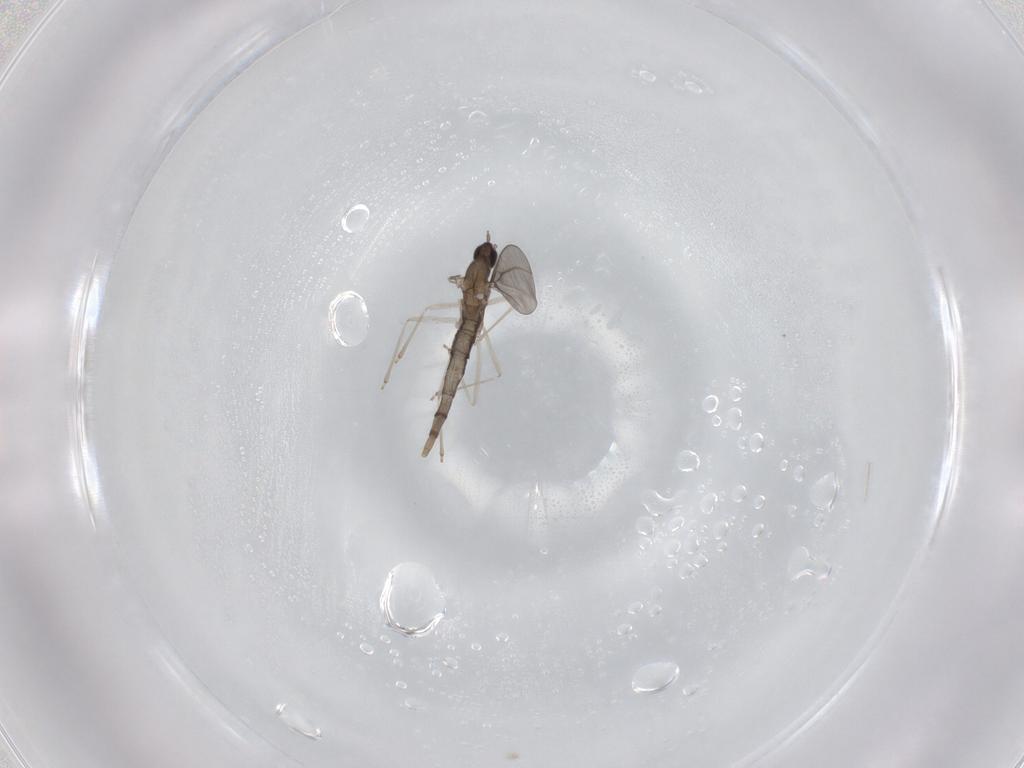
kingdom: Animalia
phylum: Arthropoda
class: Insecta
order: Diptera
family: Cecidomyiidae
